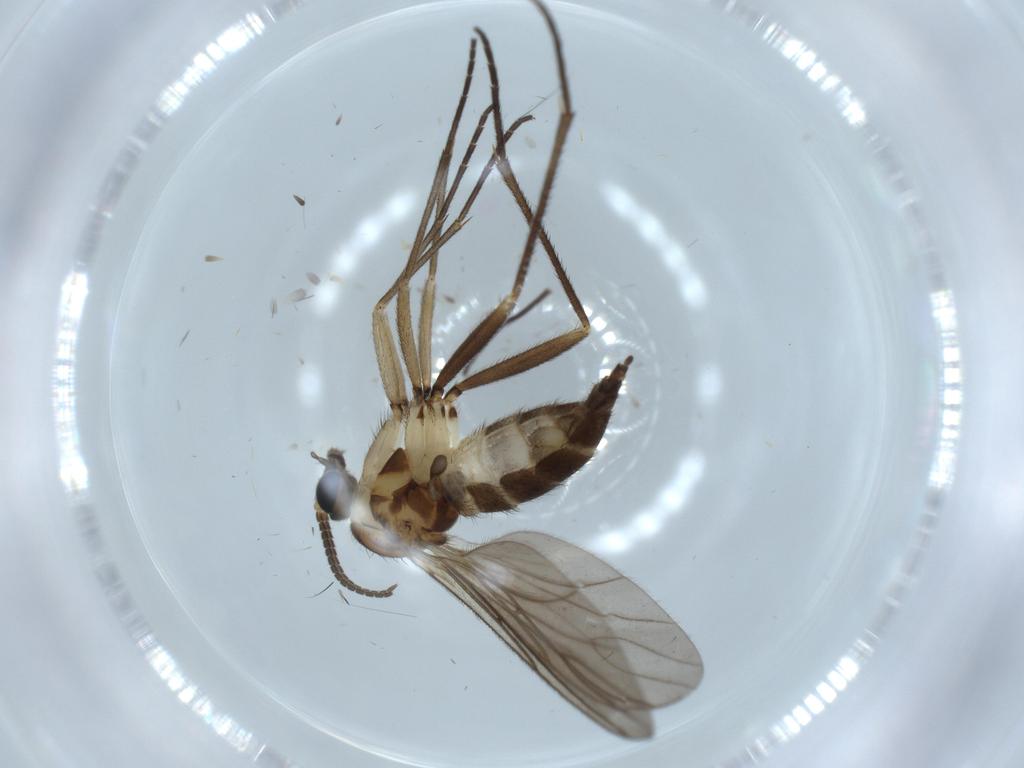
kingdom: Animalia
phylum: Arthropoda
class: Insecta
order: Diptera
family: Sciaridae
